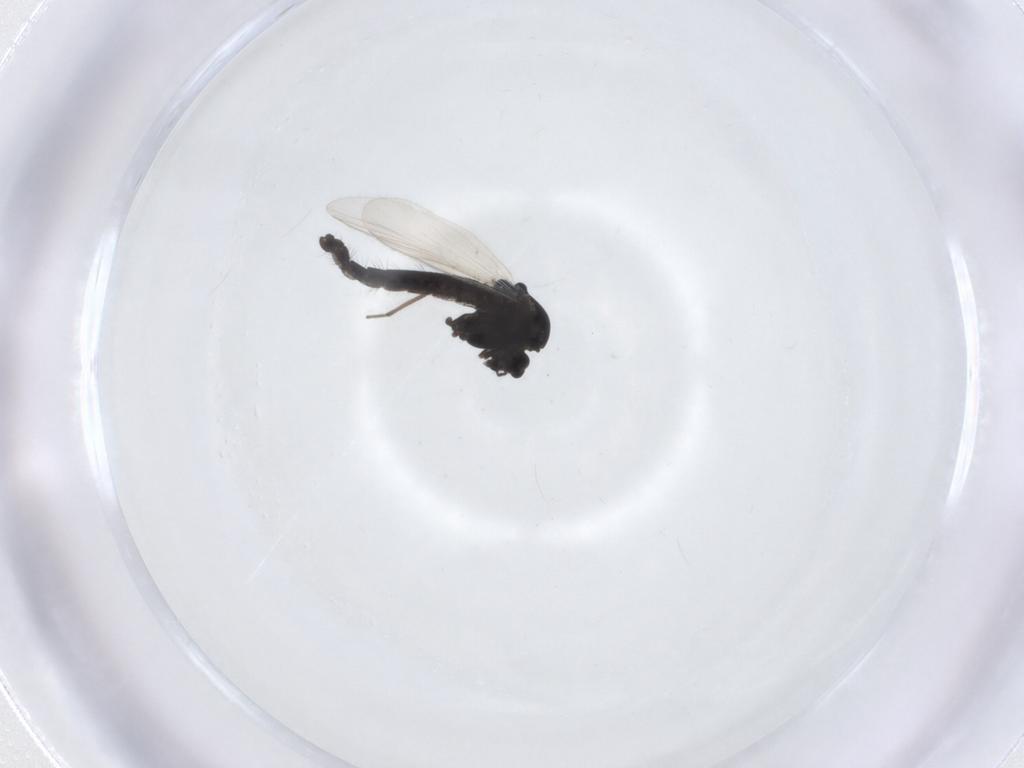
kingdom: Animalia
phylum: Arthropoda
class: Insecta
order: Diptera
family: Chironomidae
